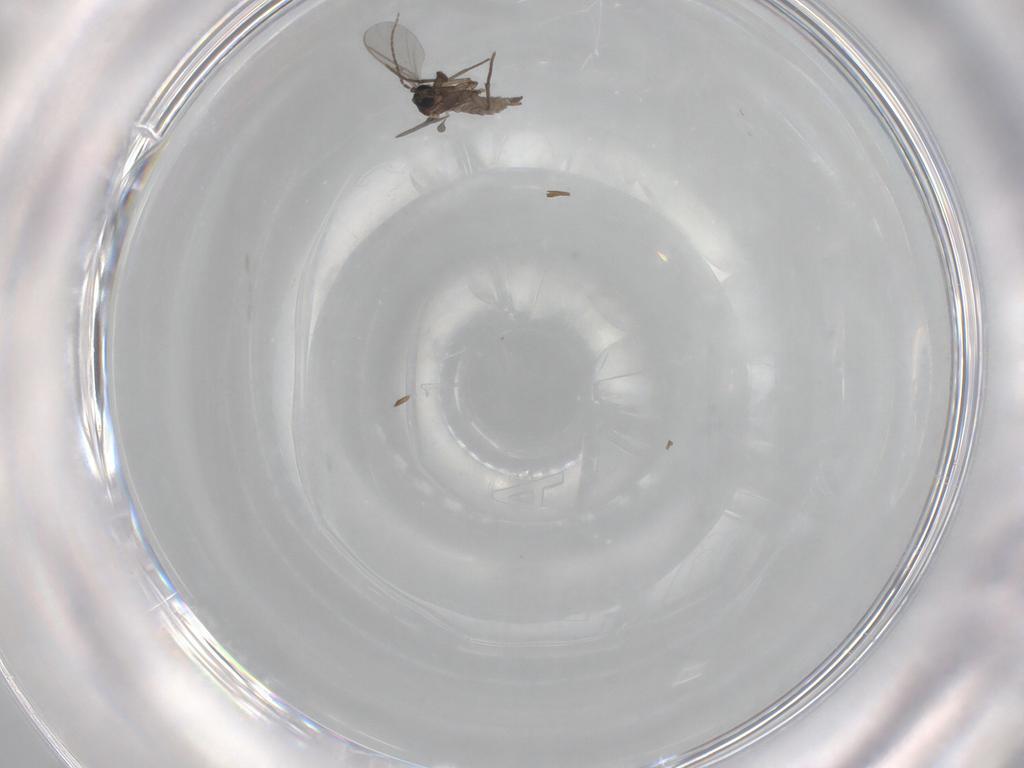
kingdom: Animalia
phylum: Arthropoda
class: Insecta
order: Diptera
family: Sciaridae
